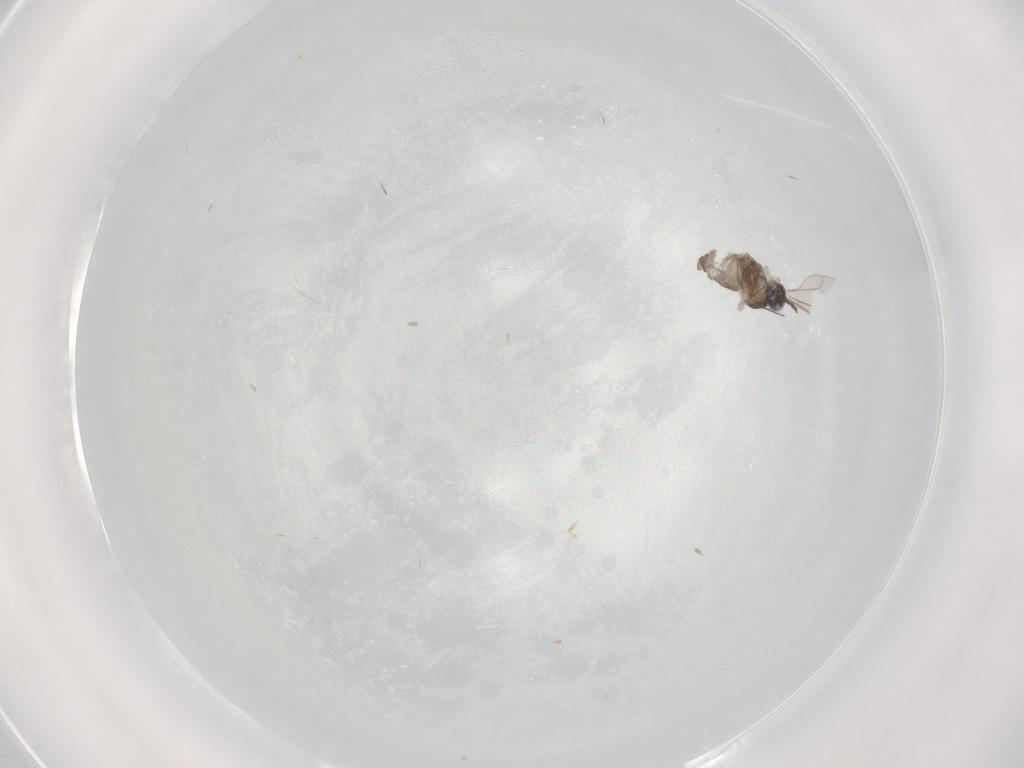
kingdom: Animalia
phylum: Arthropoda
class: Insecta
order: Diptera
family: Cecidomyiidae
